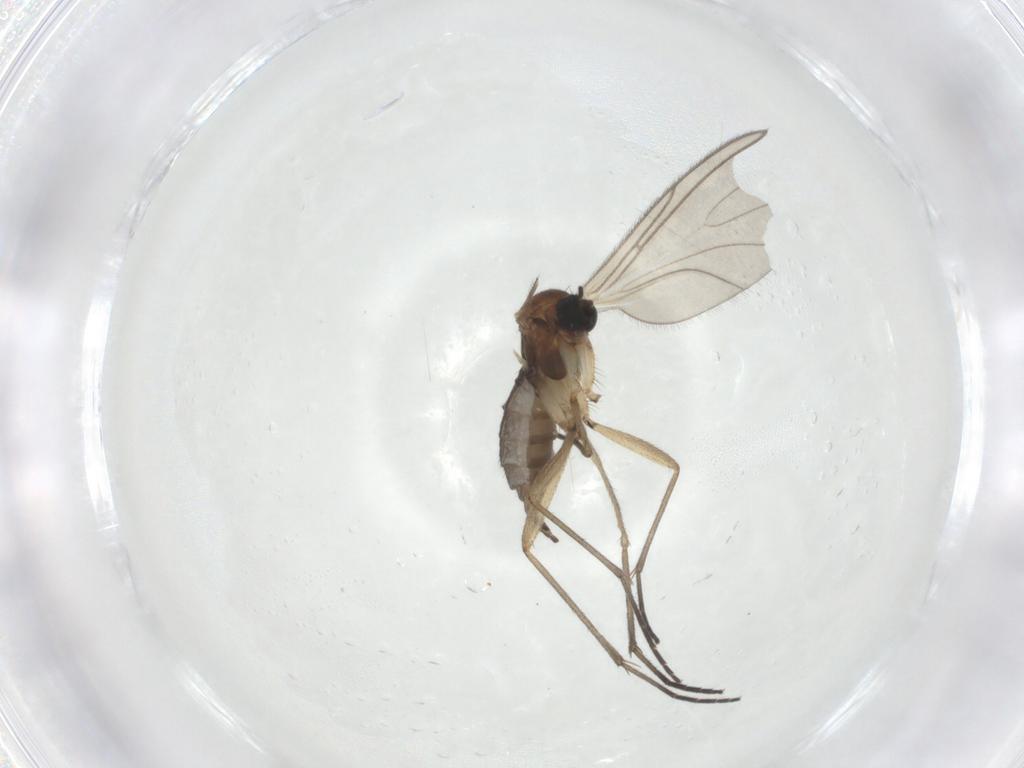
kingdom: Animalia
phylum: Arthropoda
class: Insecta
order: Diptera
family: Sciaridae
